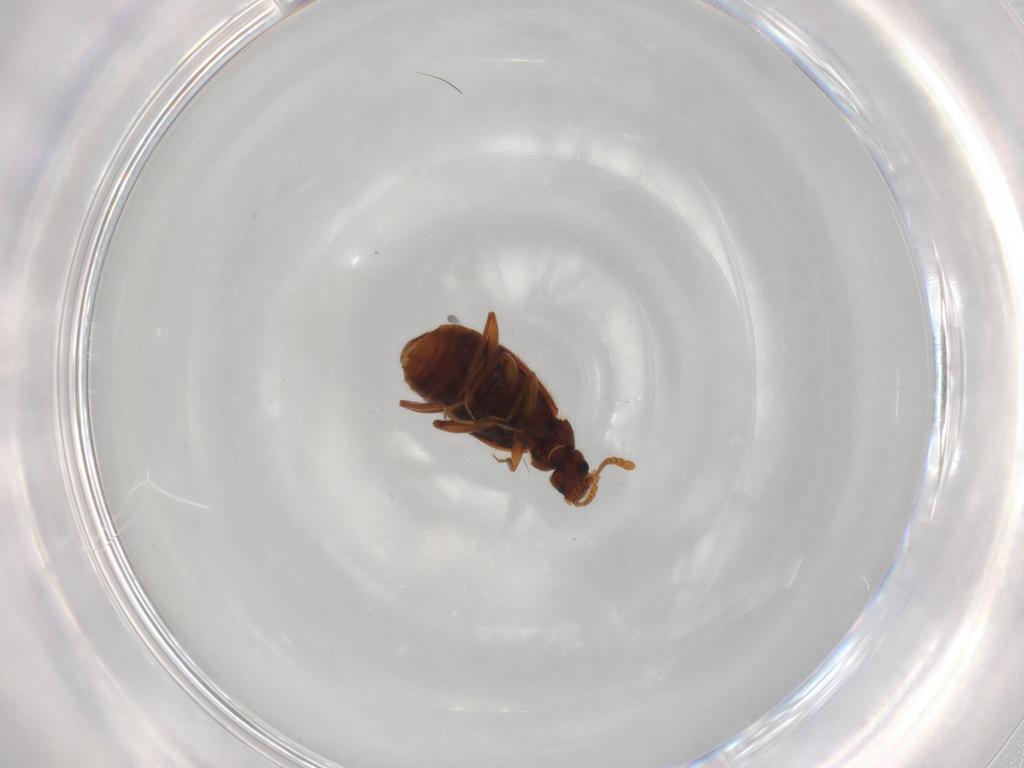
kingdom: Animalia
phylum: Arthropoda
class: Insecta
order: Coleoptera
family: Staphylinidae
